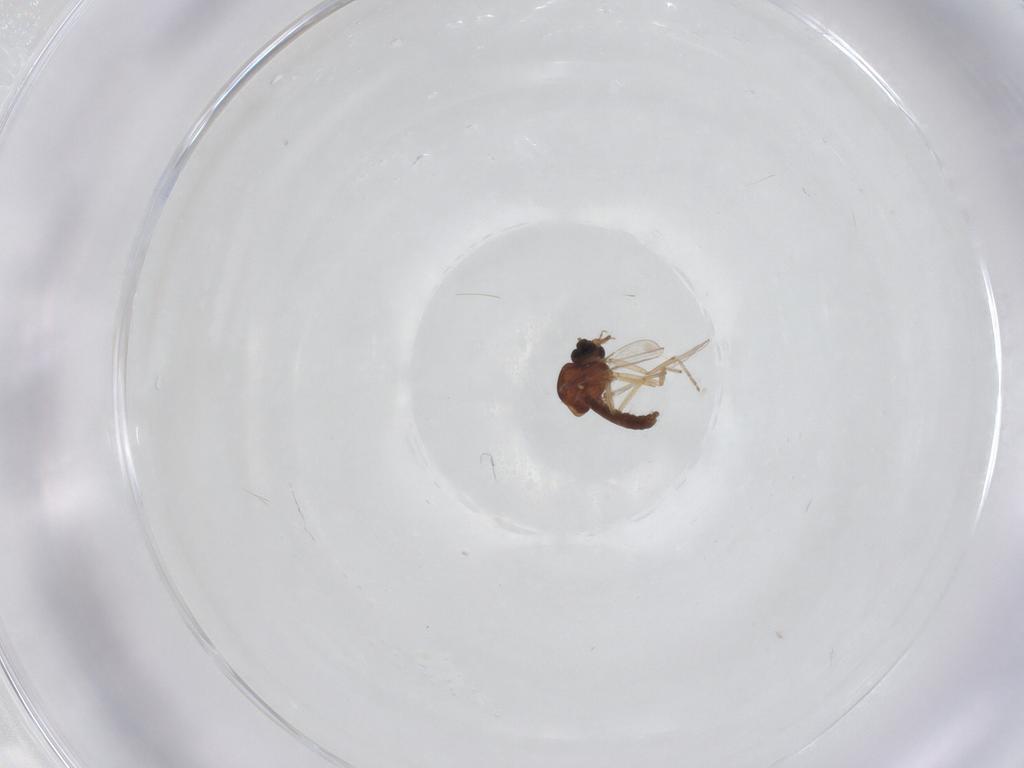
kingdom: Animalia
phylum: Arthropoda
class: Insecta
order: Diptera
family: Ceratopogonidae
